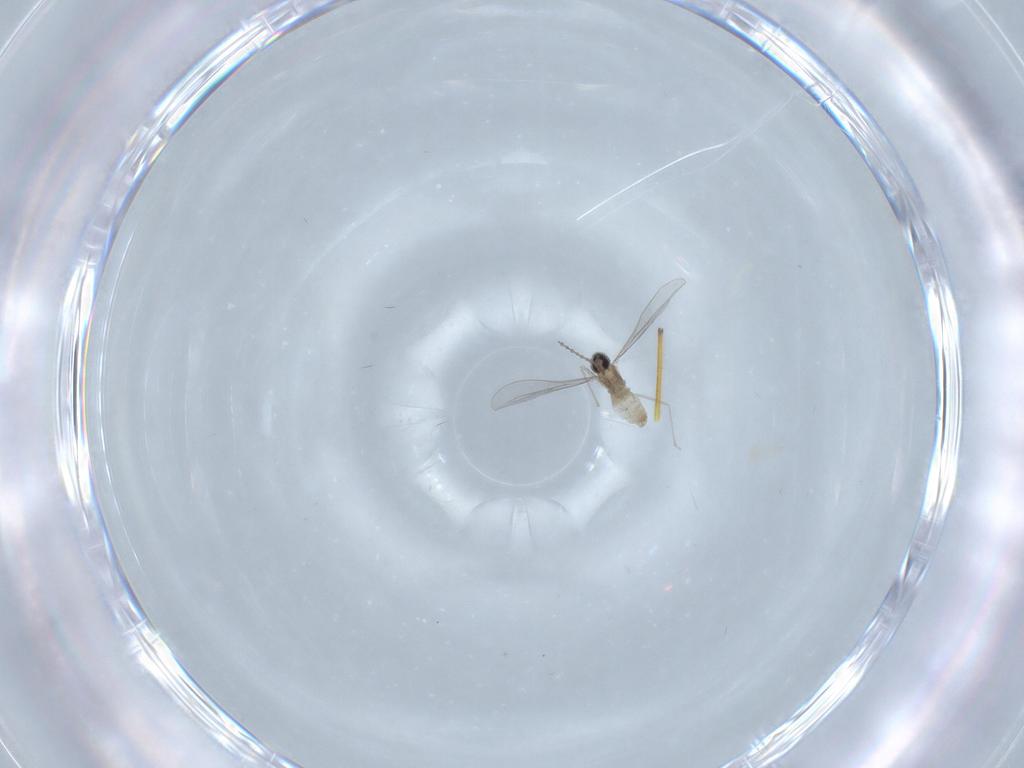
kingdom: Animalia
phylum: Arthropoda
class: Insecta
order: Diptera
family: Cecidomyiidae
